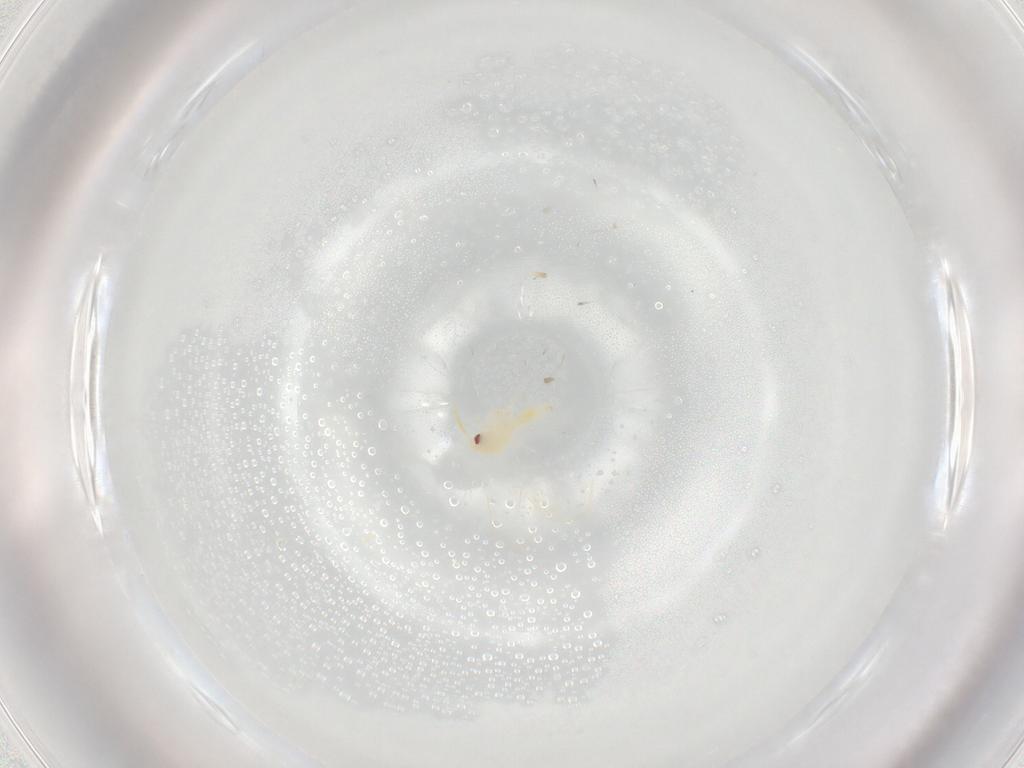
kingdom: Animalia
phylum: Arthropoda
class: Insecta
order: Hemiptera
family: Aleyrodidae
